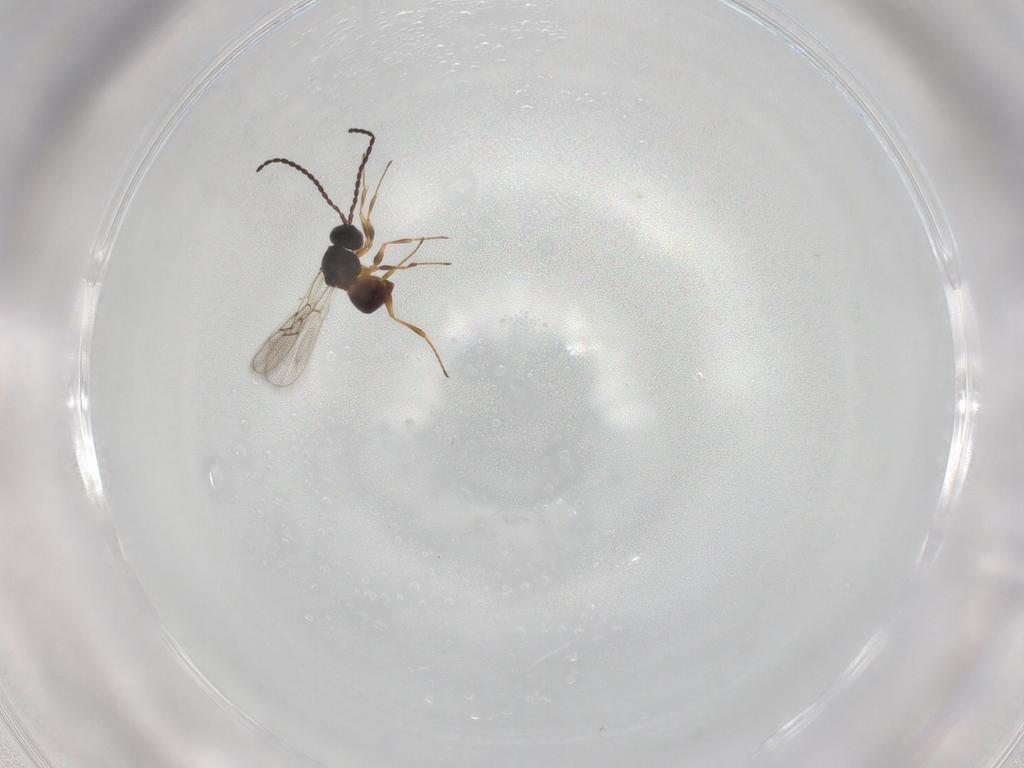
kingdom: Animalia
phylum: Arthropoda
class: Insecta
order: Hymenoptera
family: Figitidae
